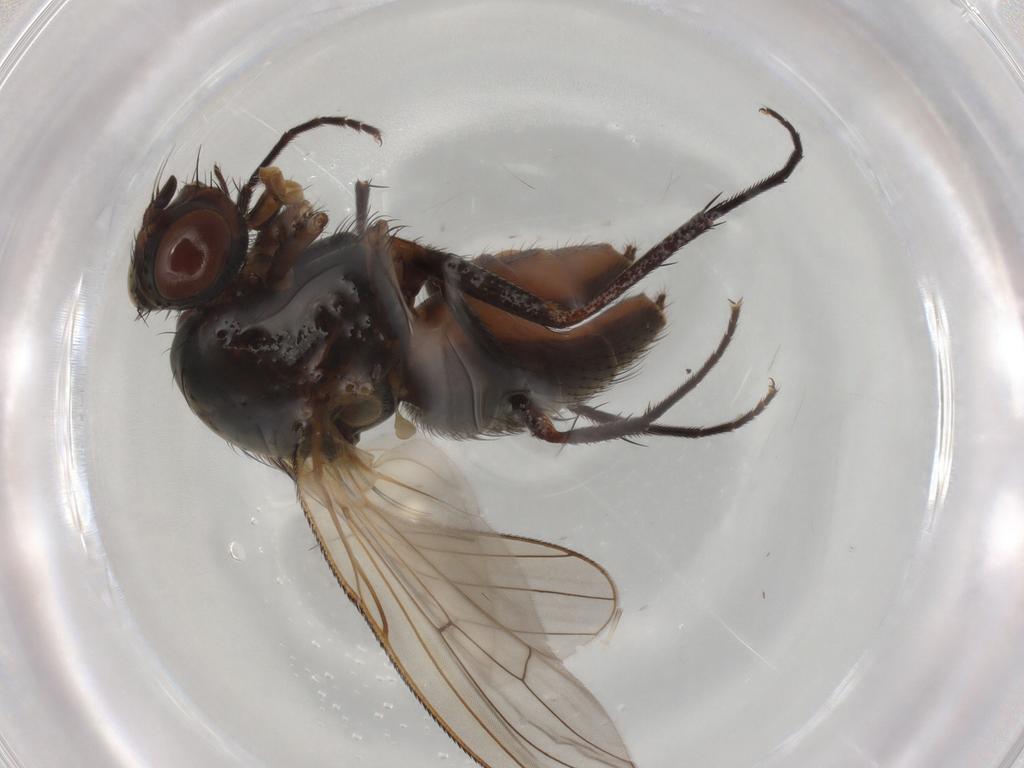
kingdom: Animalia
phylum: Arthropoda
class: Insecta
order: Diptera
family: Anthomyiidae
